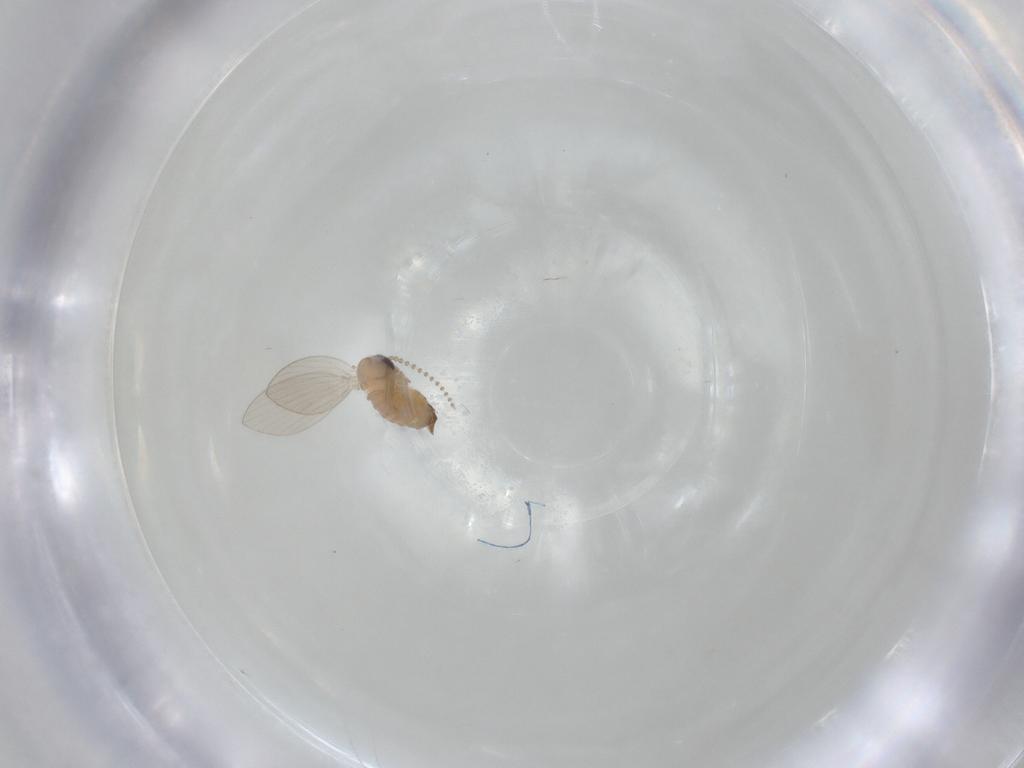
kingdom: Animalia
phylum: Arthropoda
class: Insecta
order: Diptera
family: Psychodidae
